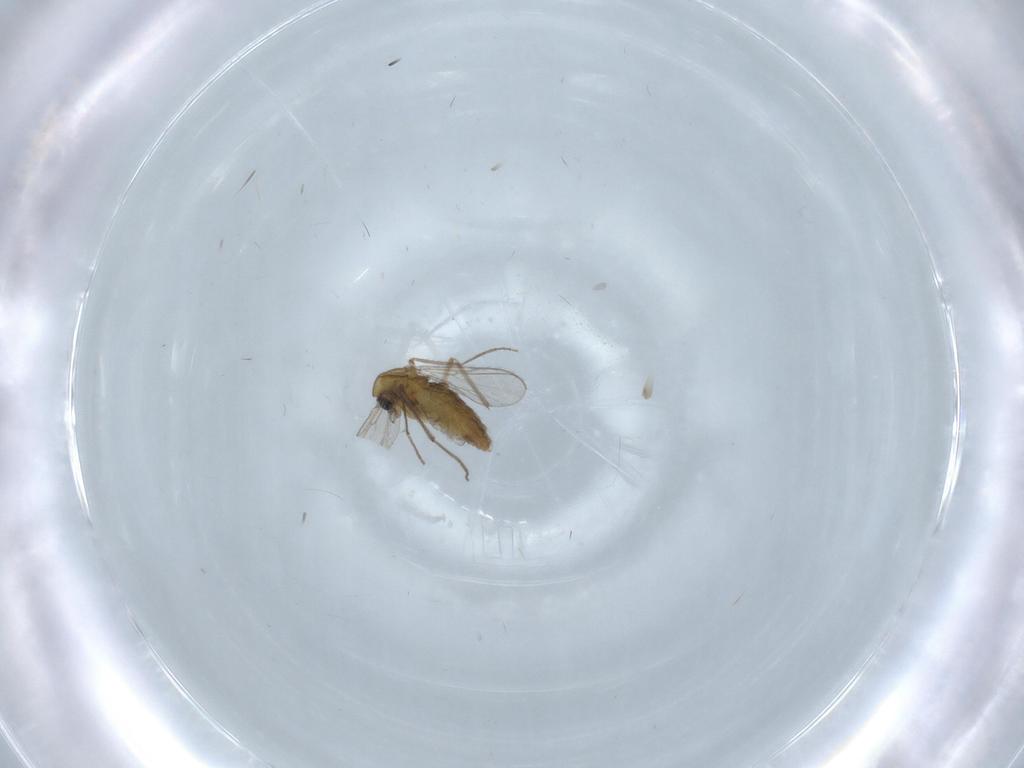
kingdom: Animalia
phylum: Arthropoda
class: Insecta
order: Diptera
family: Chironomidae
